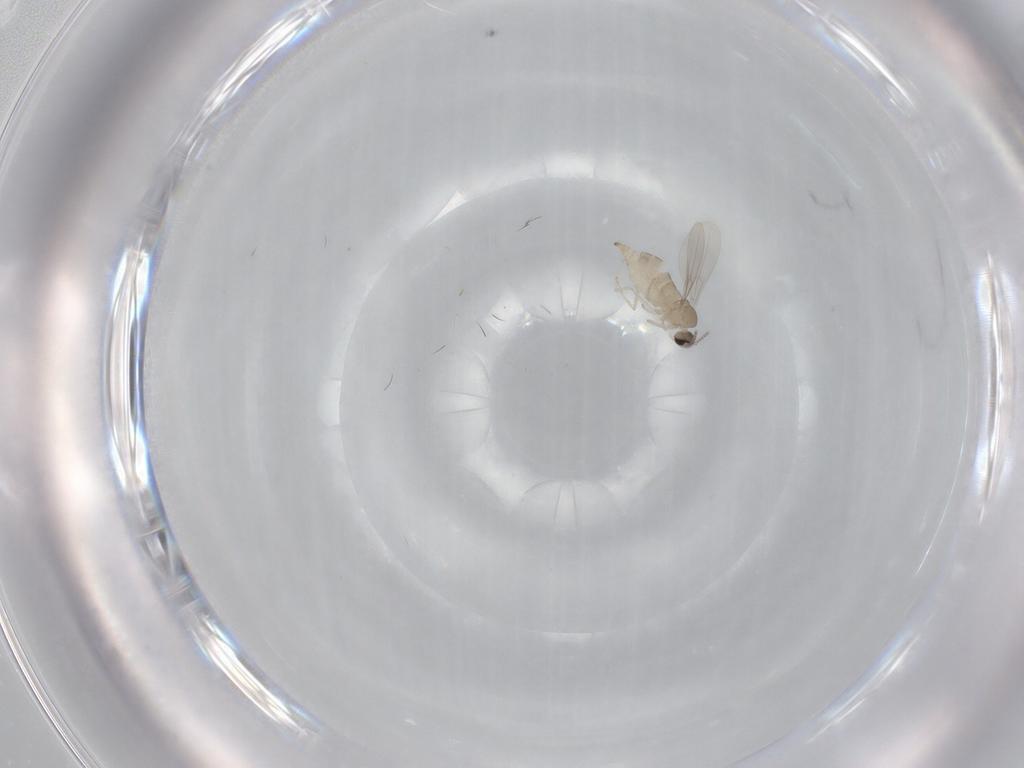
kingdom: Animalia
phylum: Arthropoda
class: Insecta
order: Diptera
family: Cecidomyiidae
